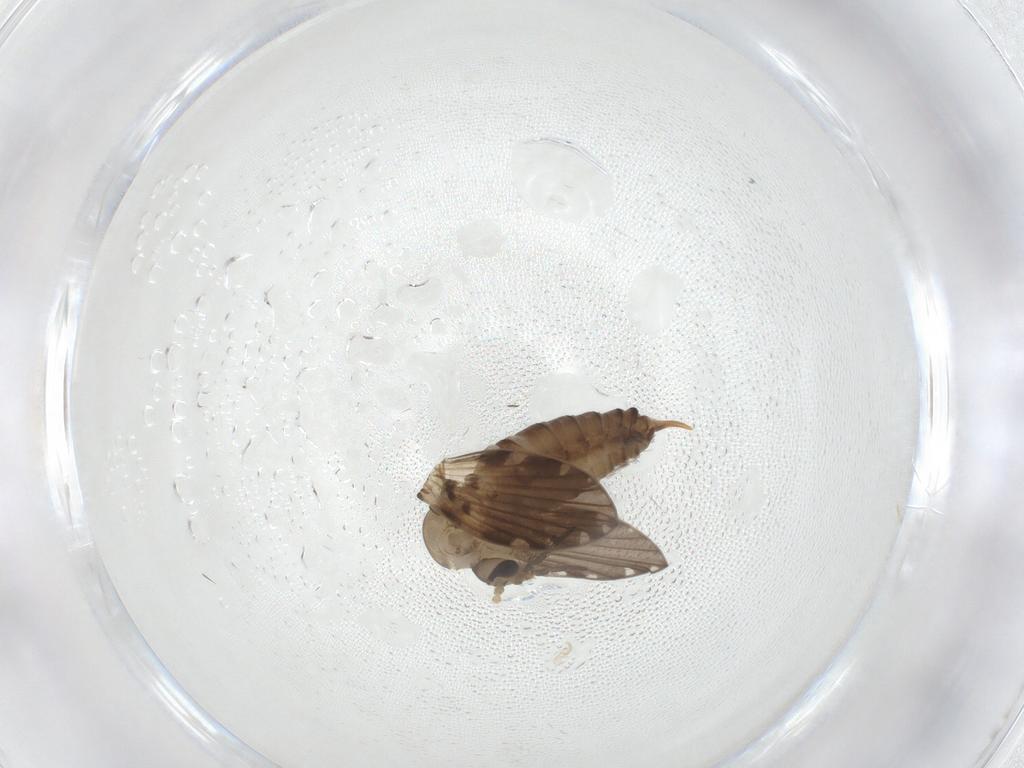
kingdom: Animalia
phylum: Arthropoda
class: Insecta
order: Diptera
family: Psychodidae
